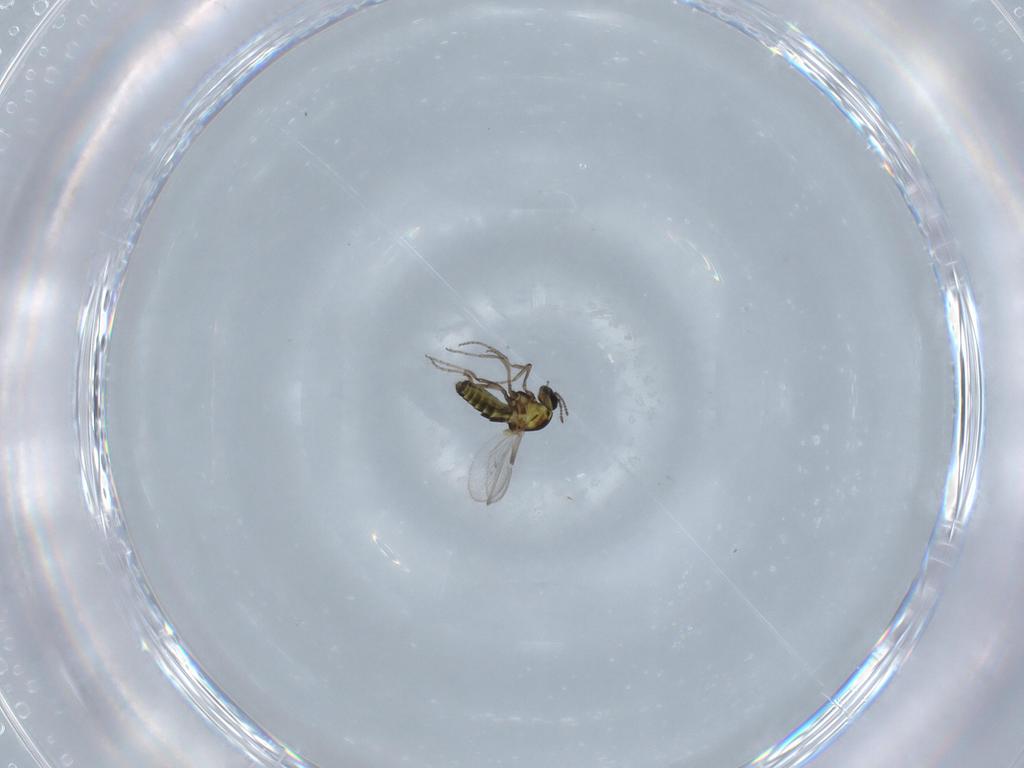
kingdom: Animalia
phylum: Arthropoda
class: Insecta
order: Diptera
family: Ceratopogonidae
